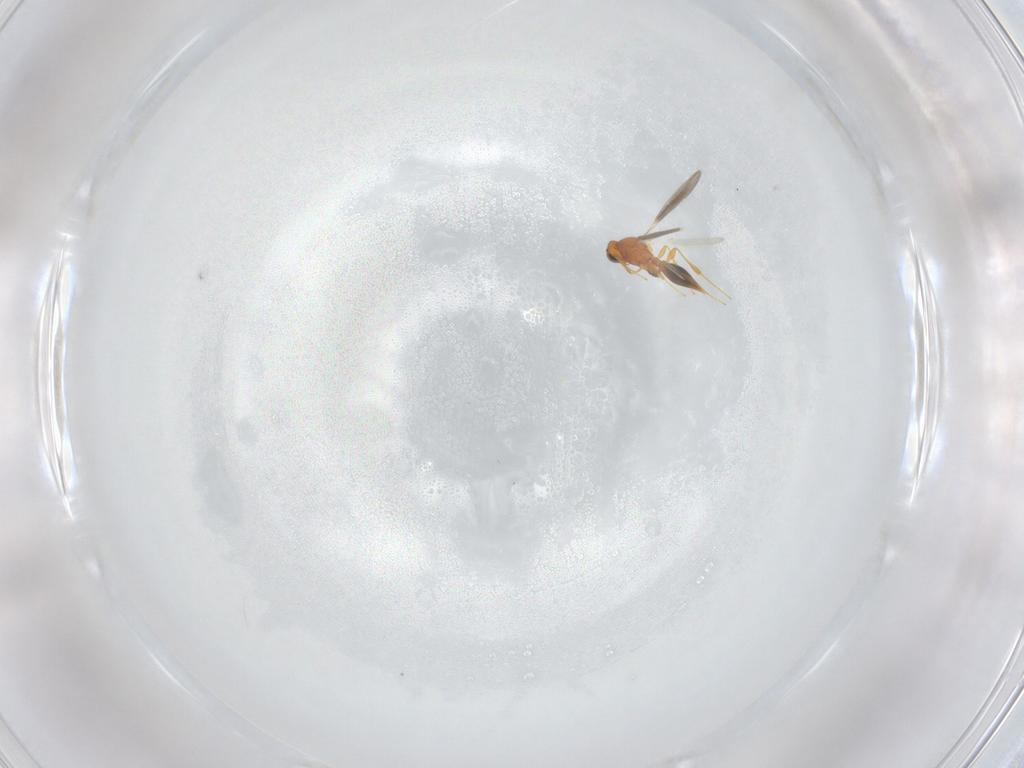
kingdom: Animalia
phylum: Arthropoda
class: Insecta
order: Hymenoptera
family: Platygastridae
